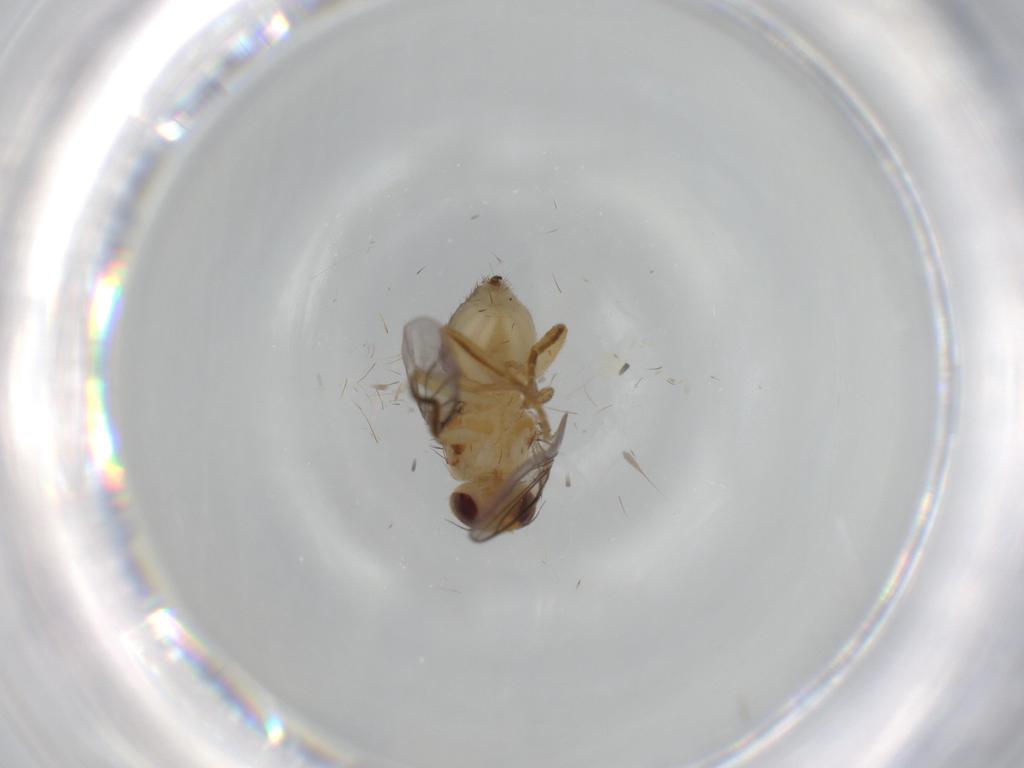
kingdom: Animalia
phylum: Arthropoda
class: Insecta
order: Diptera
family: Chloropidae
